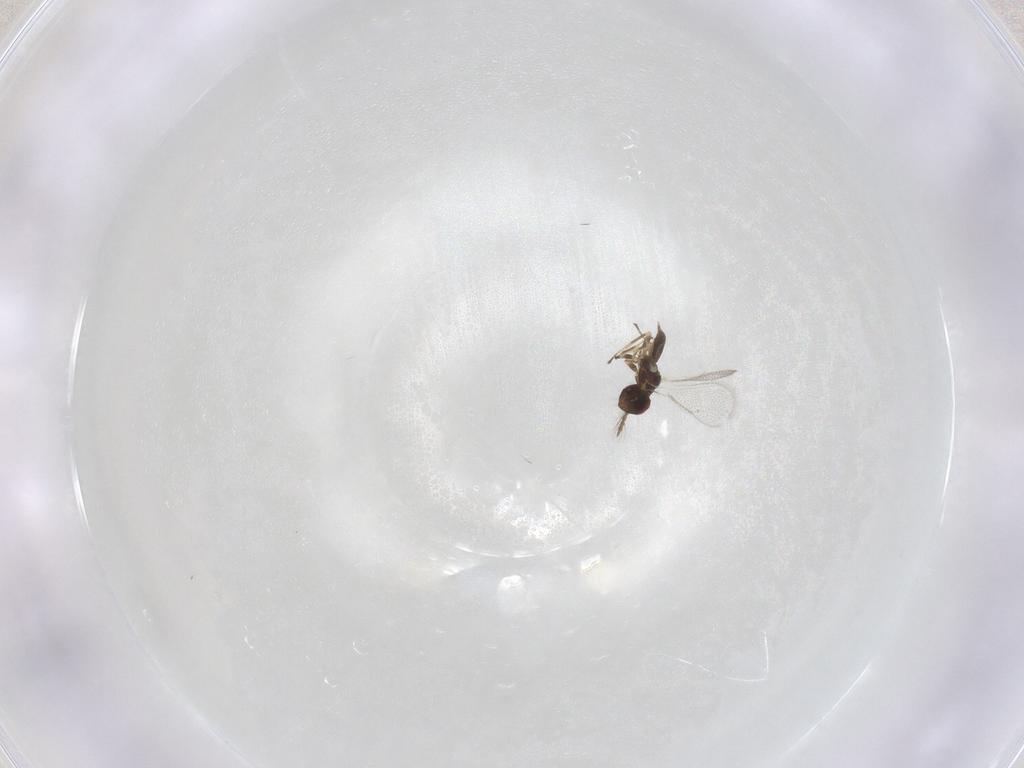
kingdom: Animalia
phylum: Arthropoda
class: Insecta
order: Hymenoptera
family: Eulophidae
